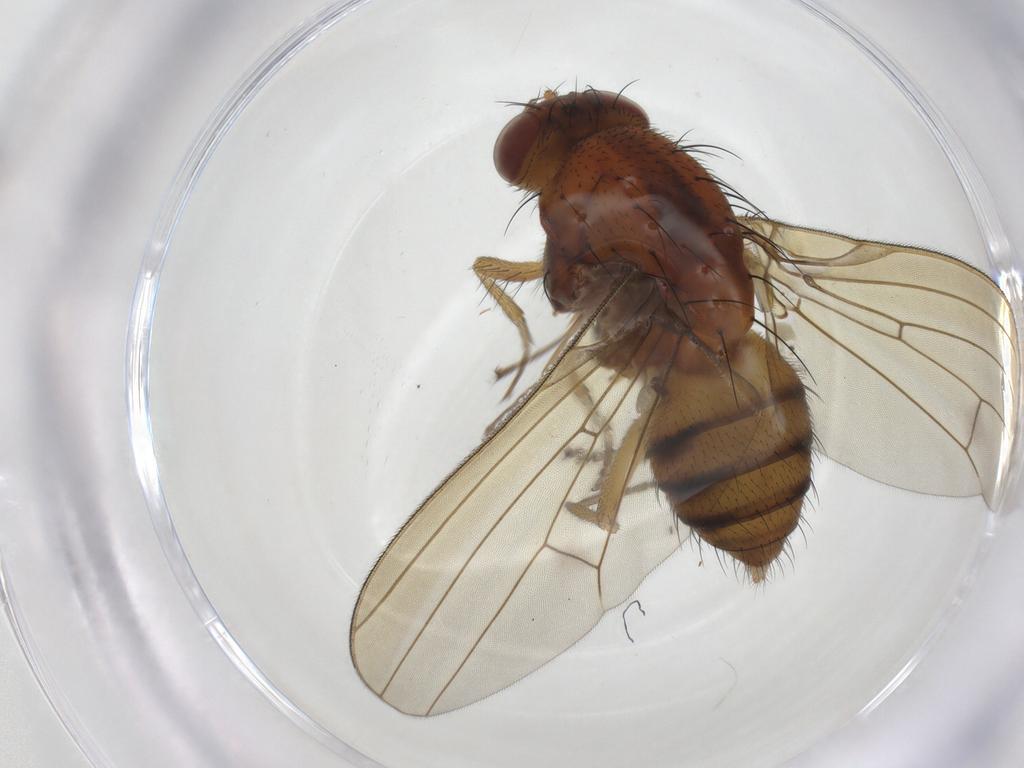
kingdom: Animalia
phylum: Arthropoda
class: Insecta
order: Diptera
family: Lauxaniidae
